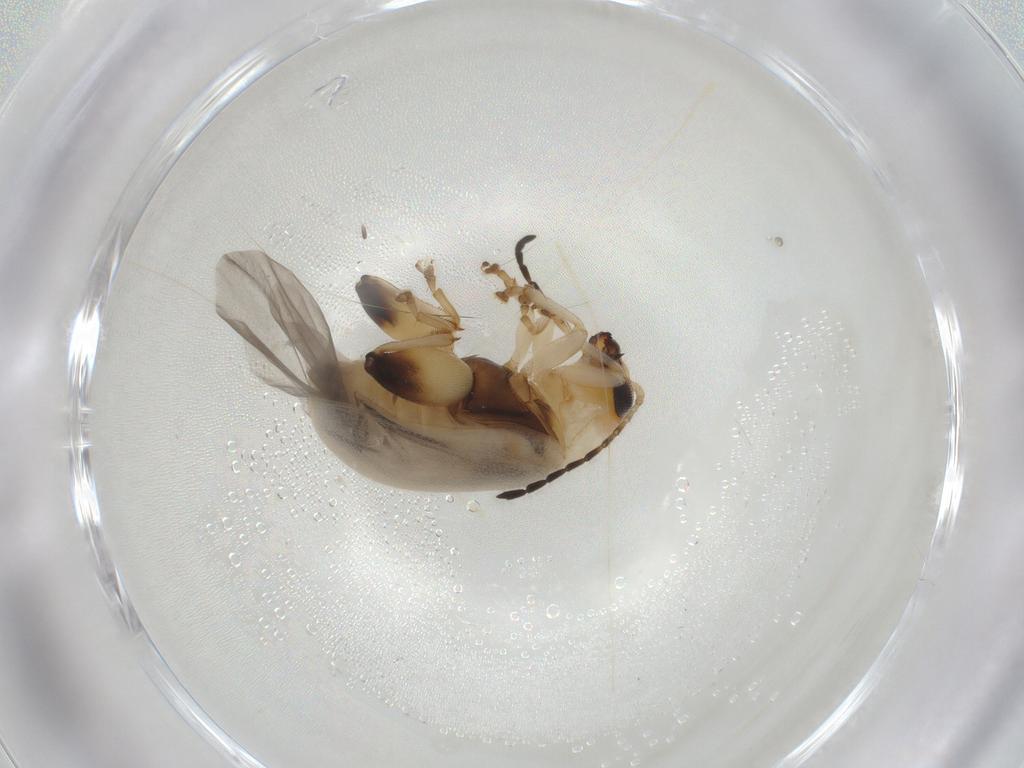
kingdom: Animalia
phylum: Arthropoda
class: Insecta
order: Coleoptera
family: Chrysomelidae
